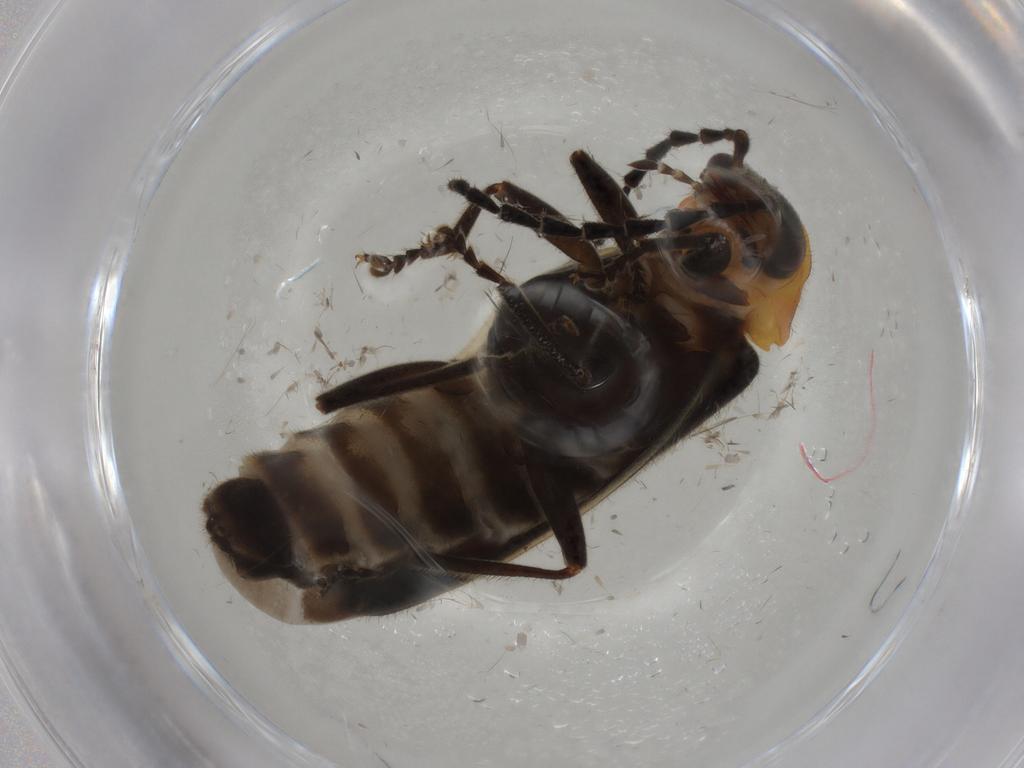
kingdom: Animalia
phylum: Arthropoda
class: Insecta
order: Coleoptera
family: Cantharidae
